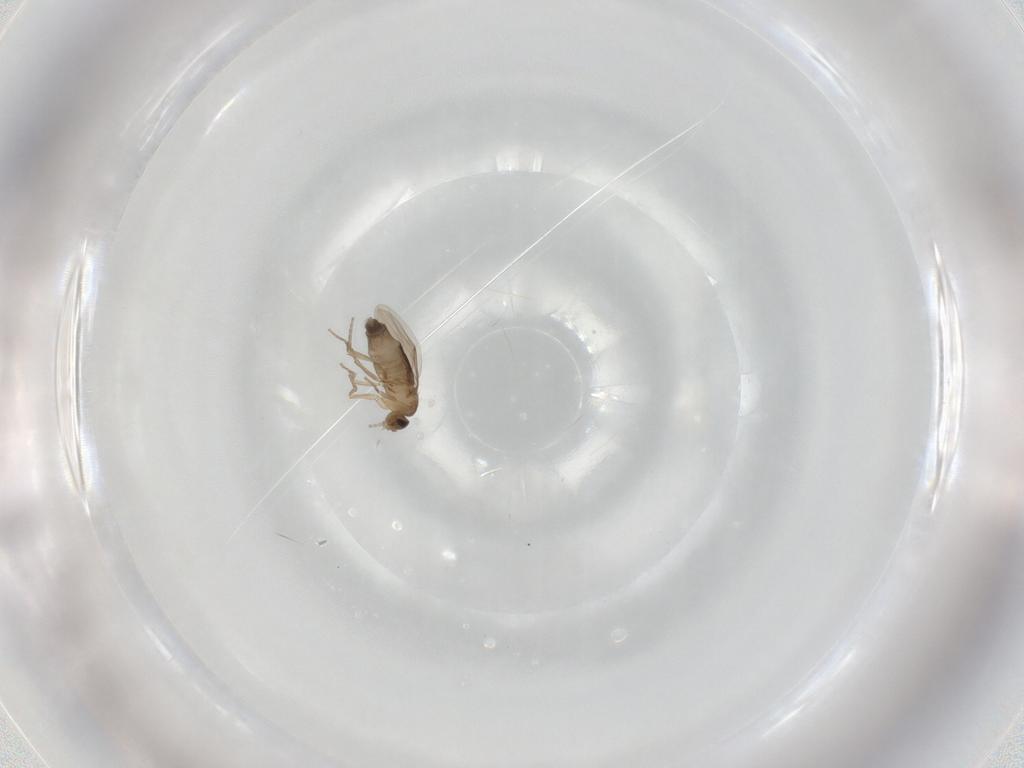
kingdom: Animalia
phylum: Arthropoda
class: Insecta
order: Diptera
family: Phoridae
